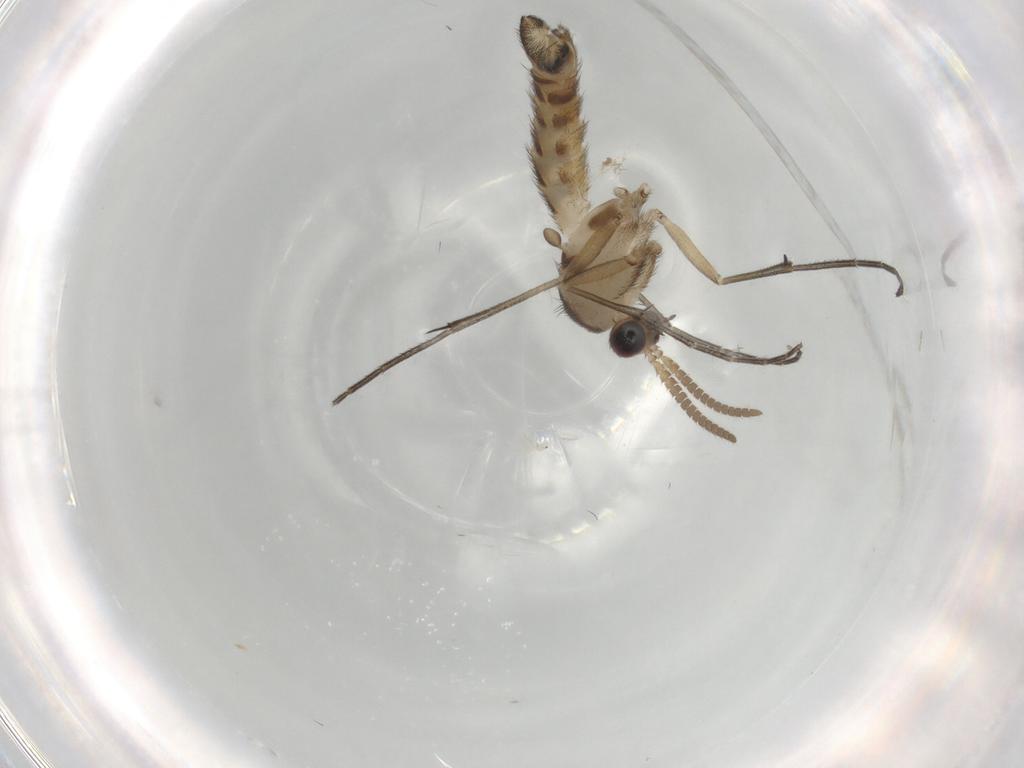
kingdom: Animalia
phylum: Arthropoda
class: Insecta
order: Diptera
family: Keroplatidae
